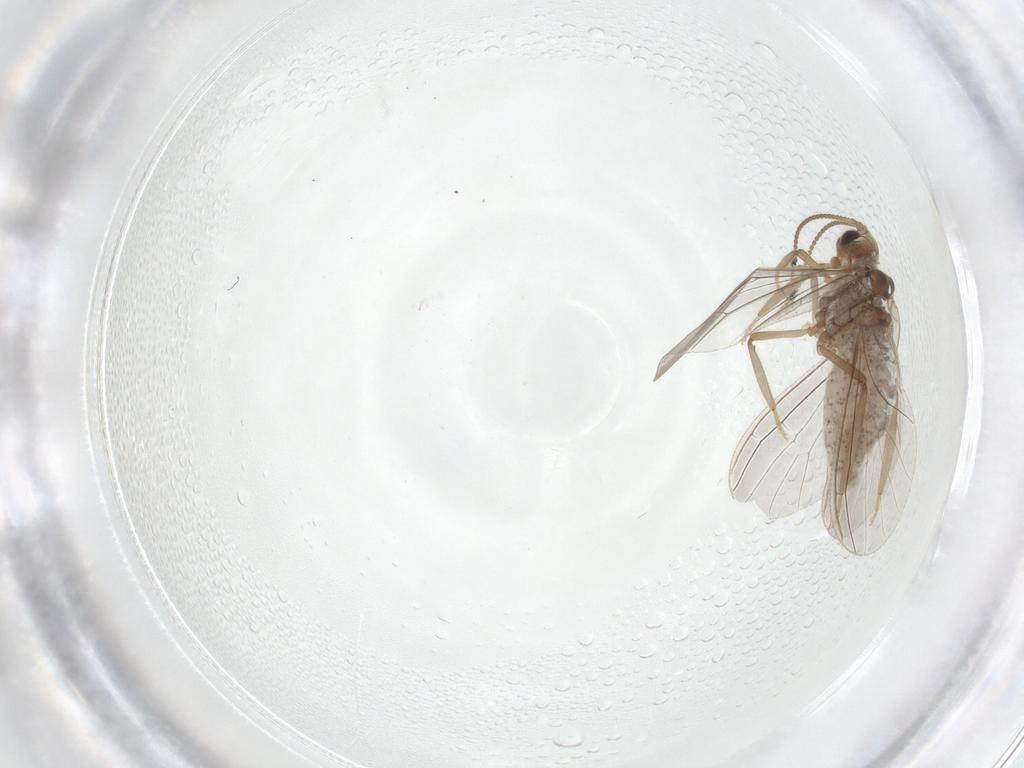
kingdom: Animalia
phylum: Arthropoda
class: Insecta
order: Neuroptera
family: Coniopterygidae
